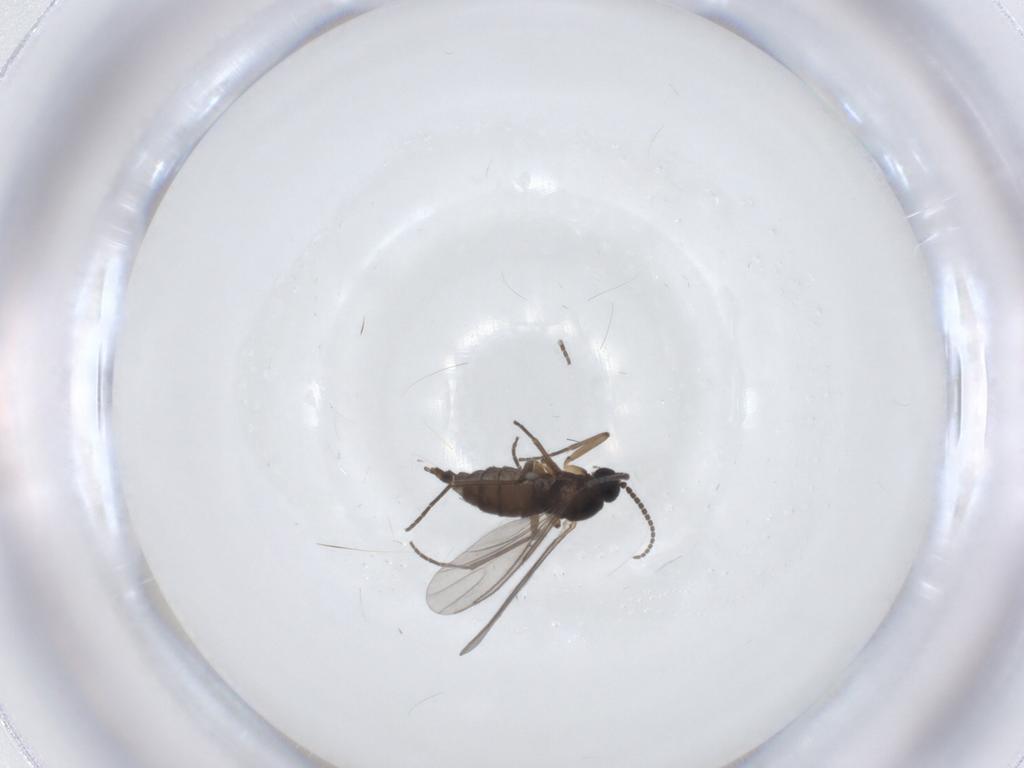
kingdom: Animalia
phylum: Arthropoda
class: Insecta
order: Diptera
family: Sciaridae
